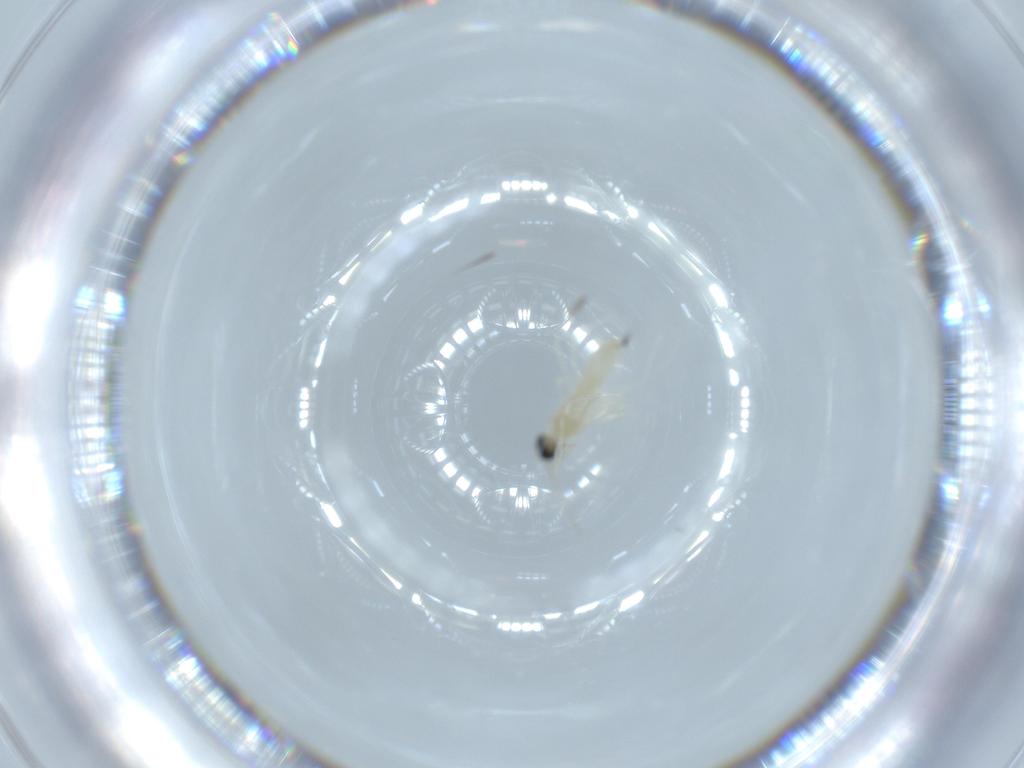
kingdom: Animalia
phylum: Arthropoda
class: Insecta
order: Diptera
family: Cecidomyiidae
